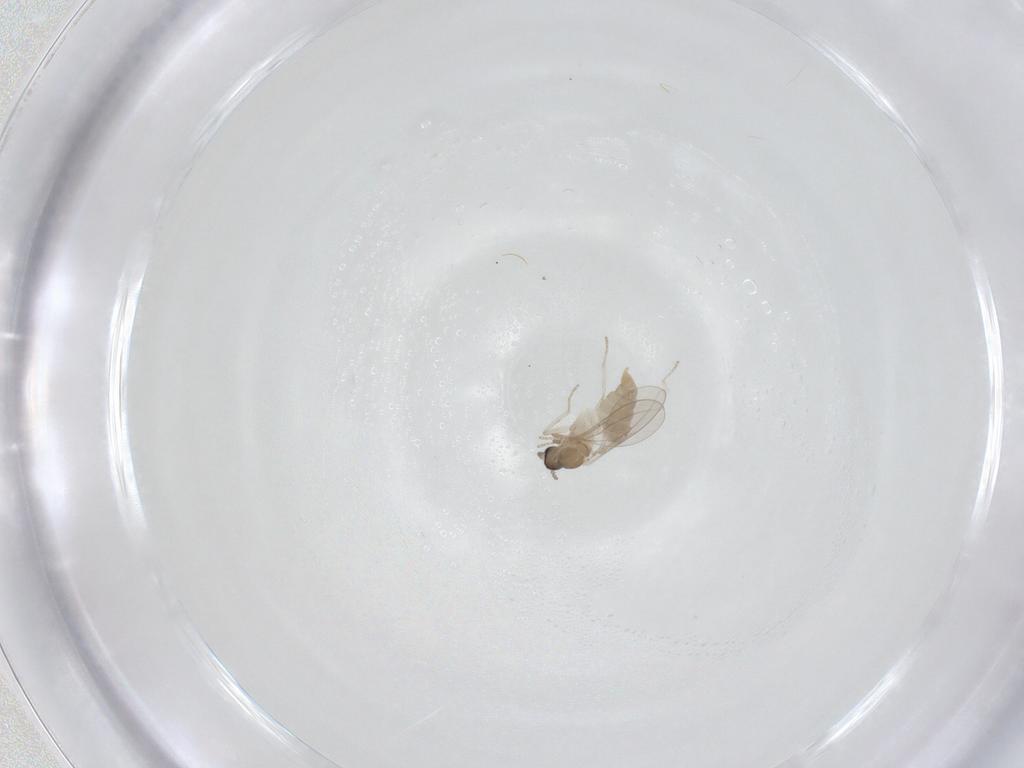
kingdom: Animalia
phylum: Arthropoda
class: Insecta
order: Diptera
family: Cecidomyiidae
